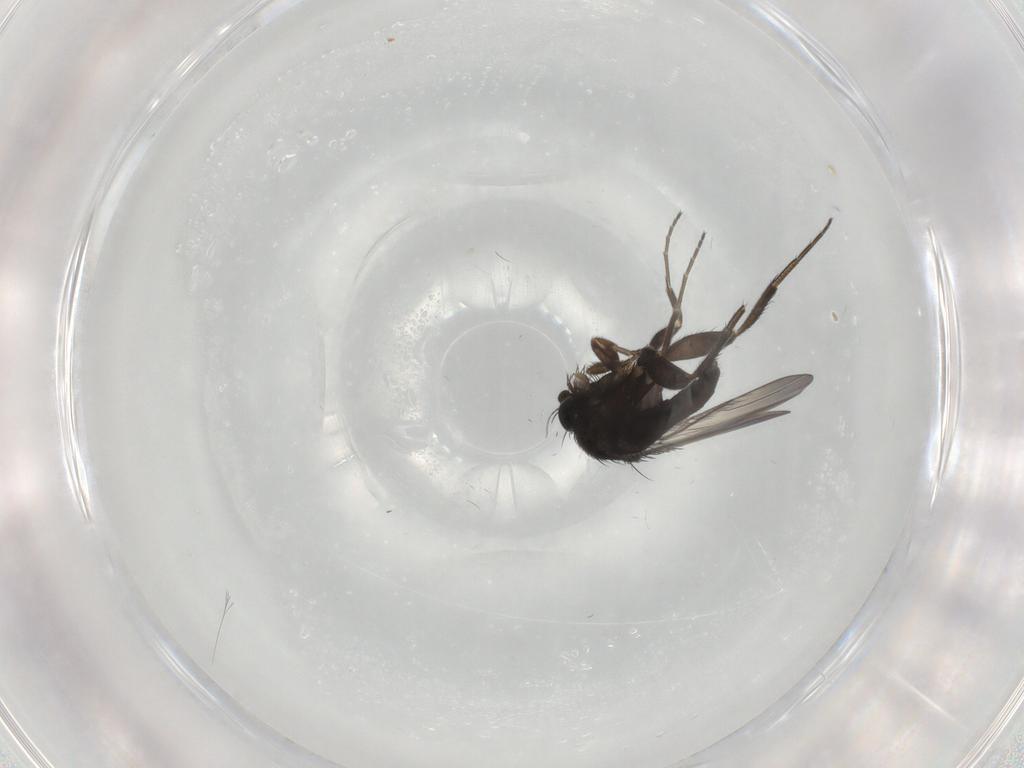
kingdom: Animalia
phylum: Arthropoda
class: Insecta
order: Diptera
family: Phoridae
